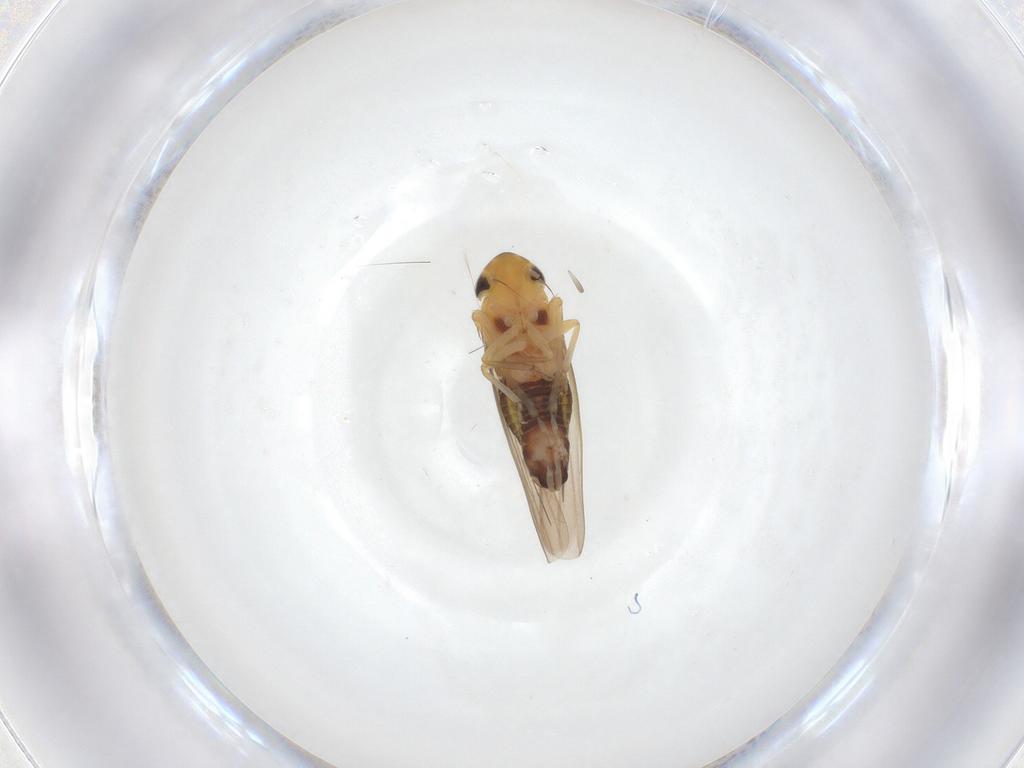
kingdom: Animalia
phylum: Arthropoda
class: Insecta
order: Hemiptera
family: Cicadellidae
